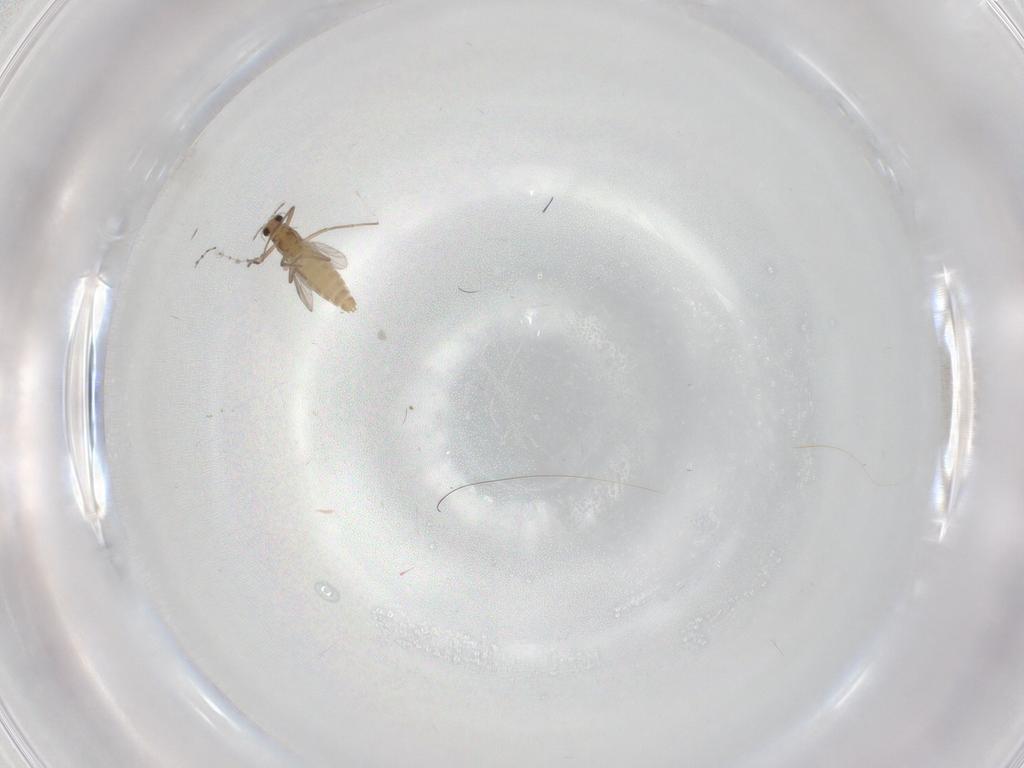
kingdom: Animalia
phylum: Arthropoda
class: Insecta
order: Diptera
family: Chironomidae
